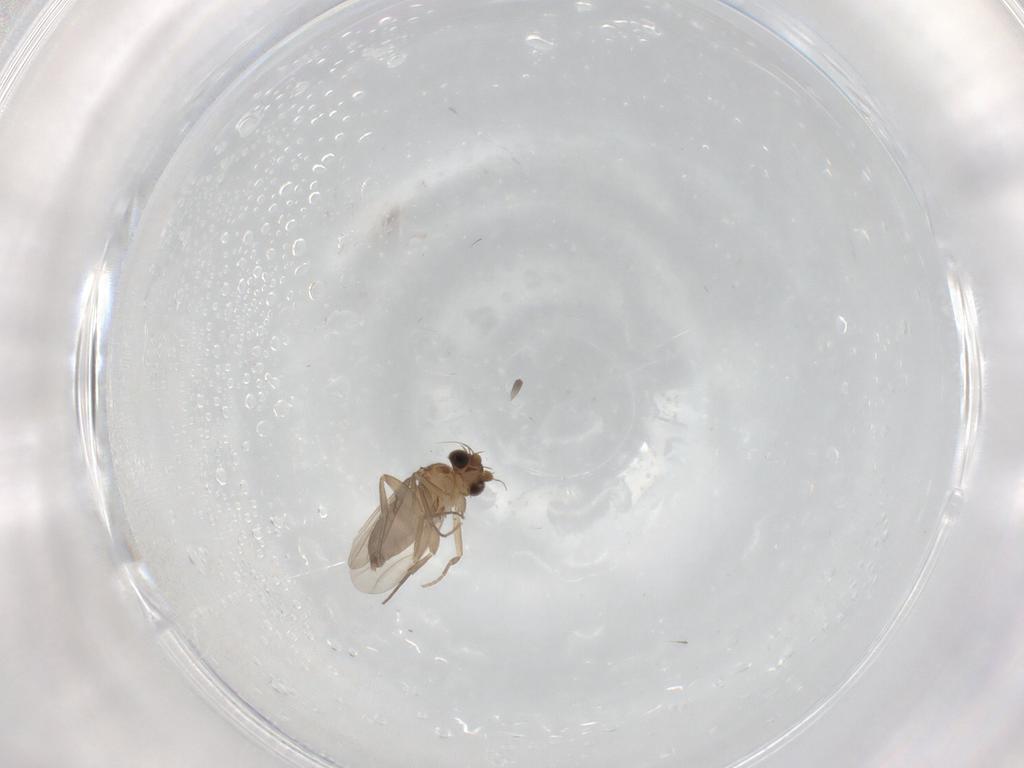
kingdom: Animalia
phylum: Arthropoda
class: Insecta
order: Diptera
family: Phoridae
